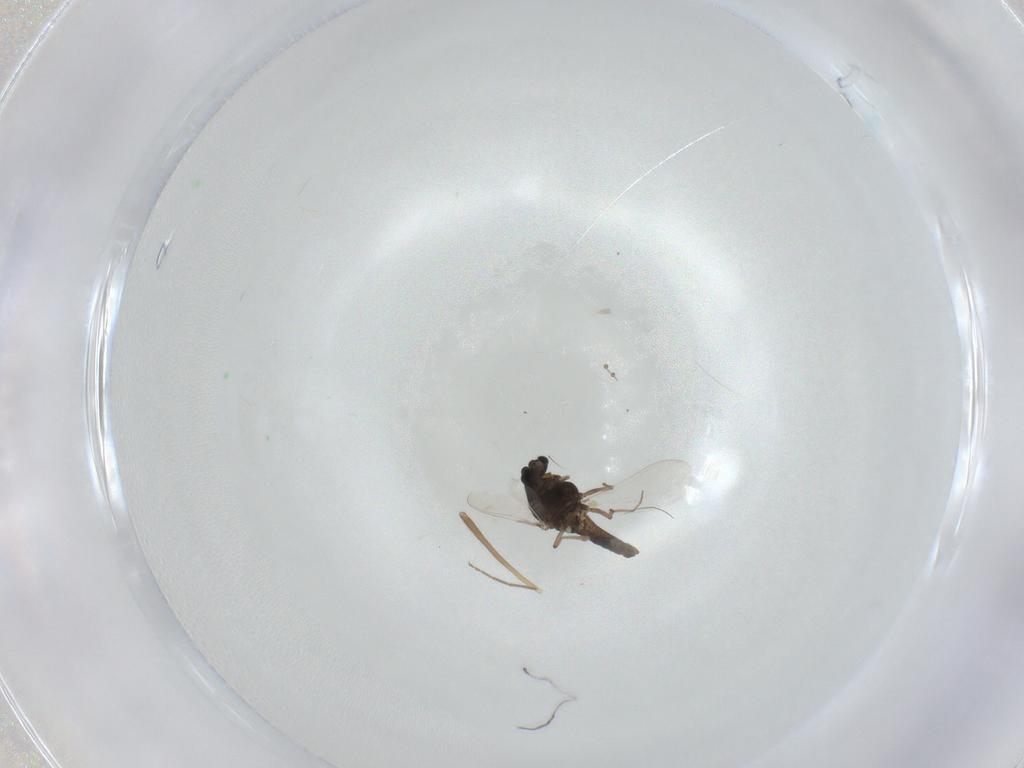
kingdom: Animalia
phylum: Arthropoda
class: Insecta
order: Diptera
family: Chironomidae
